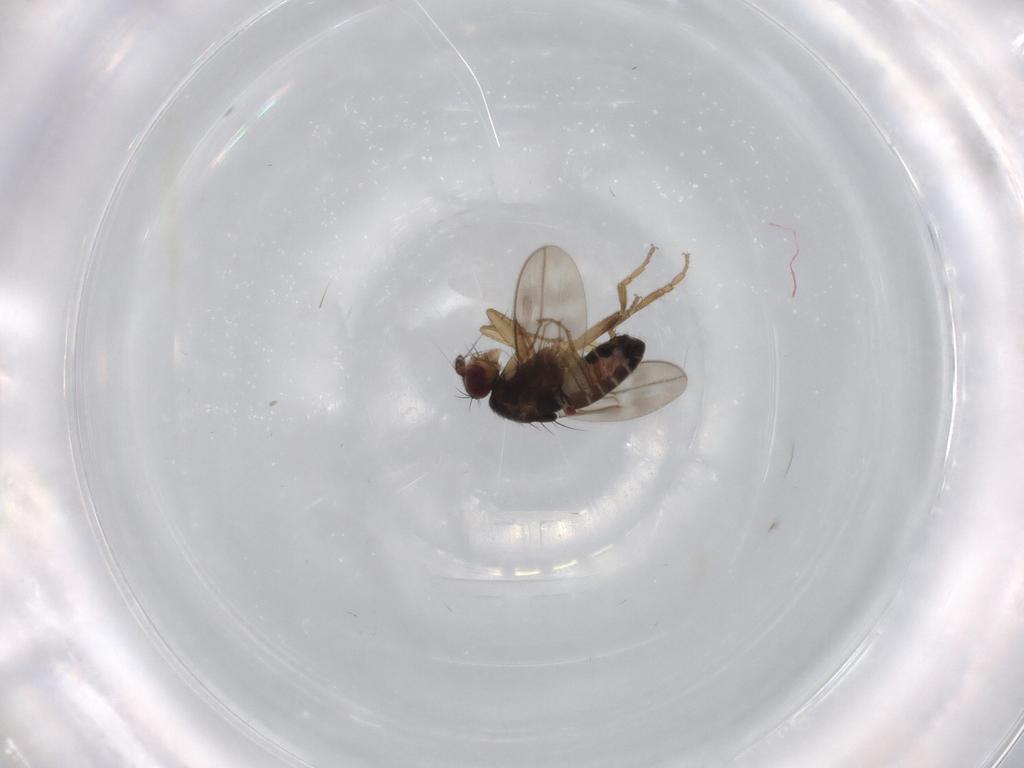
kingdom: Animalia
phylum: Arthropoda
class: Insecta
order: Diptera
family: Sphaeroceridae
